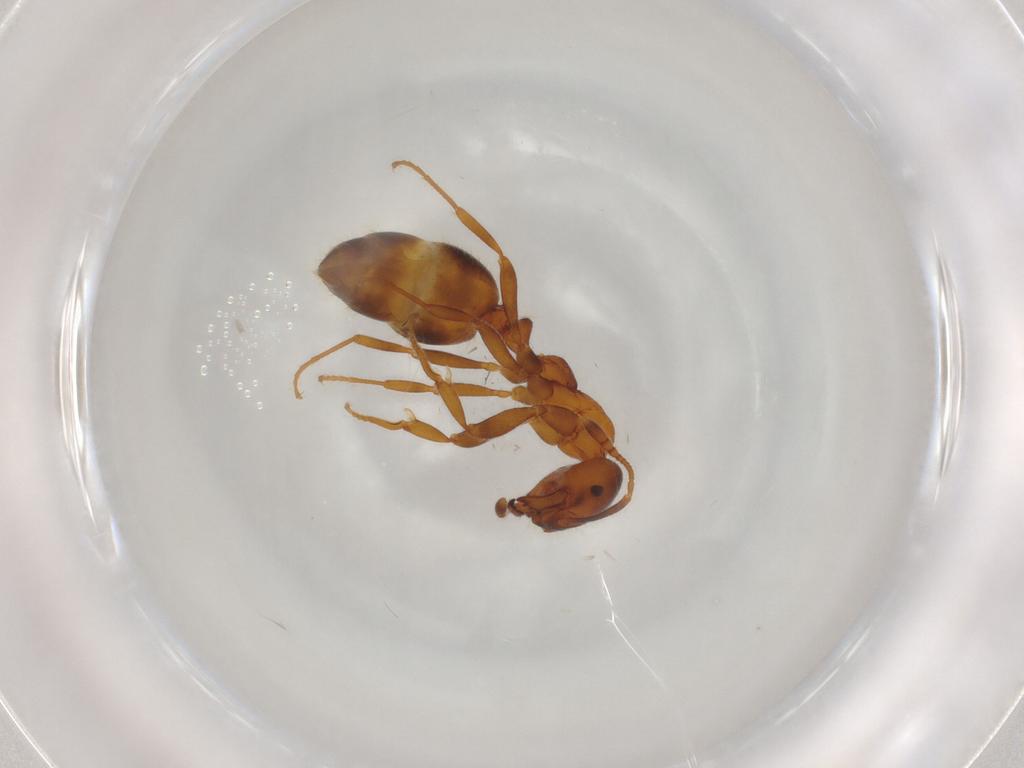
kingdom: Animalia
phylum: Arthropoda
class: Insecta
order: Hymenoptera
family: Formicidae
